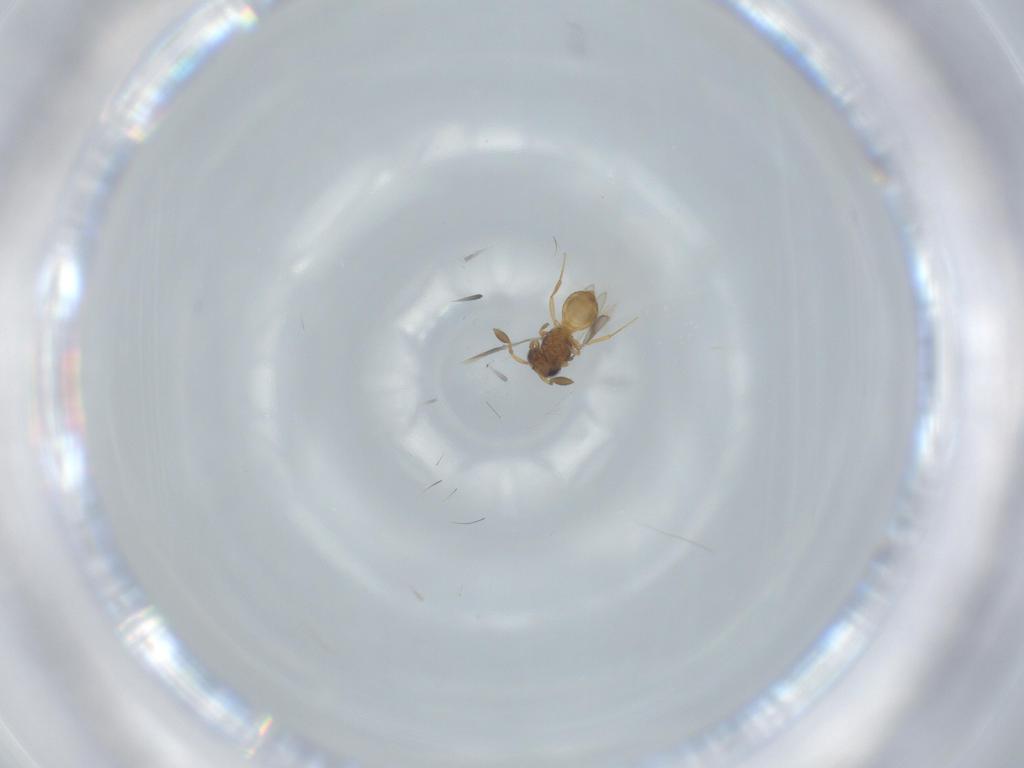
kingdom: Animalia
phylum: Arthropoda
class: Insecta
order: Hymenoptera
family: Scelionidae
